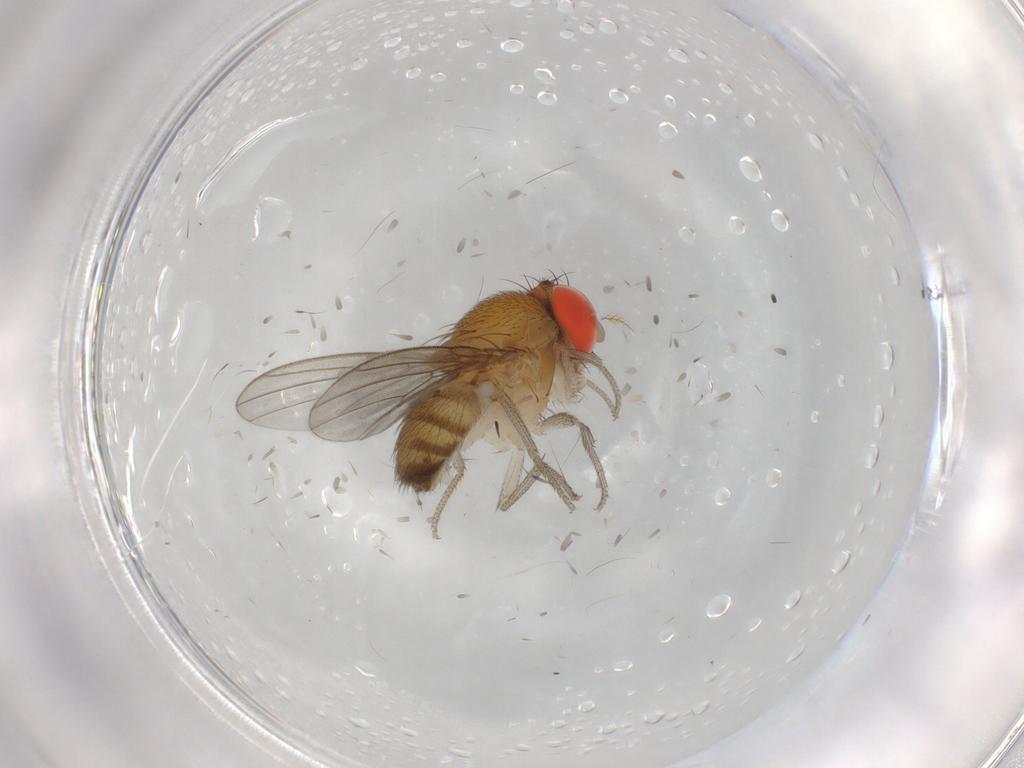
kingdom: Animalia
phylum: Arthropoda
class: Insecta
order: Diptera
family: Drosophilidae
